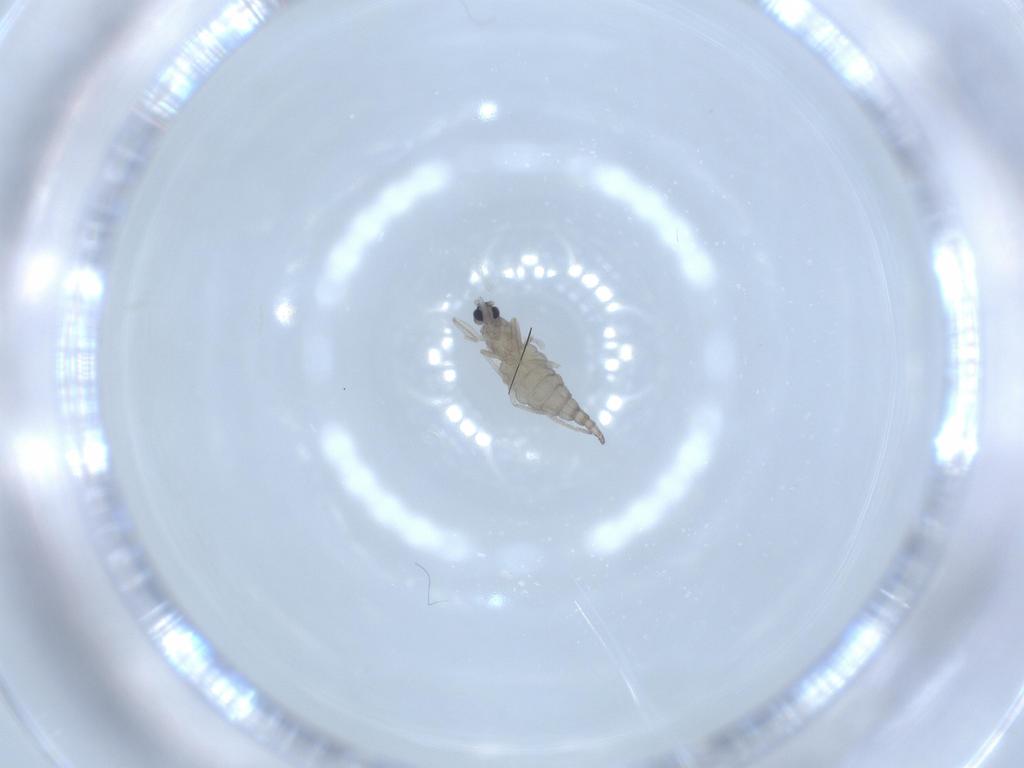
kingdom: Animalia
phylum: Arthropoda
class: Insecta
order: Diptera
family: Cecidomyiidae
